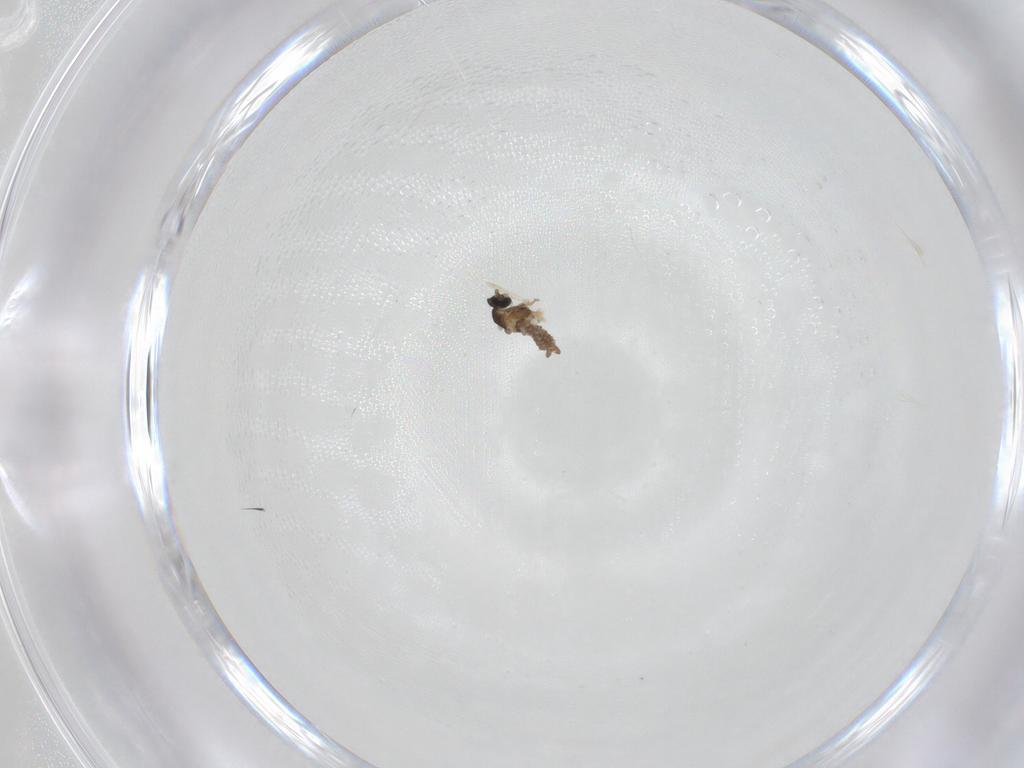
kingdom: Animalia
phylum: Arthropoda
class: Insecta
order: Diptera
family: Cecidomyiidae
